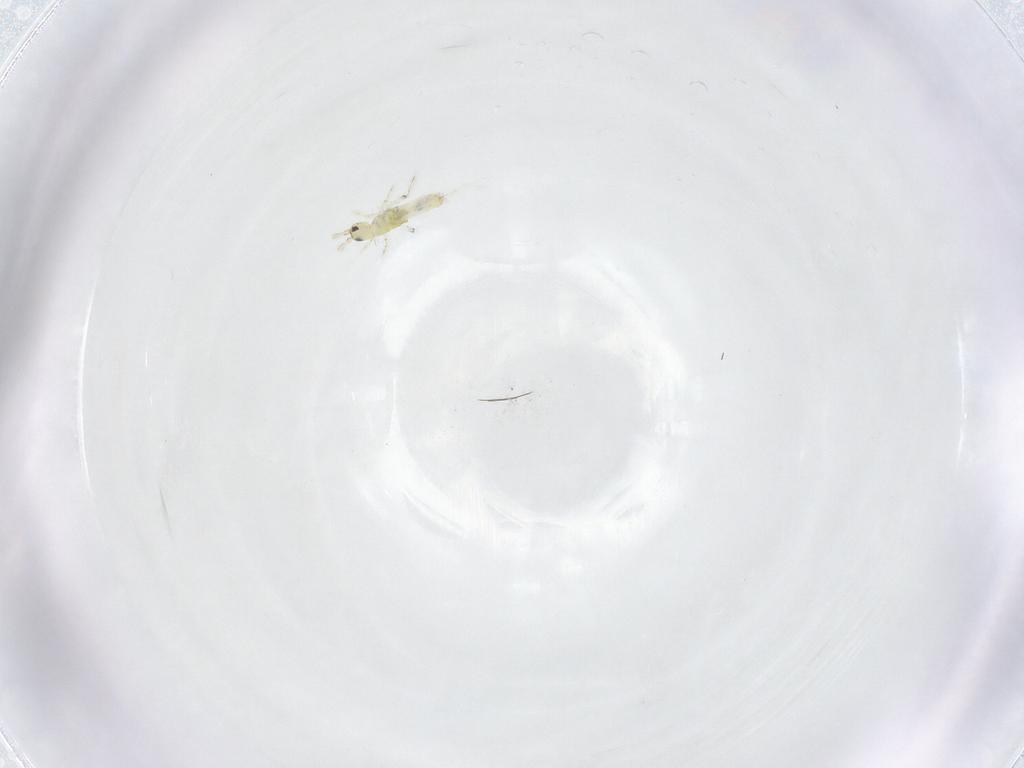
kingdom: Animalia
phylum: Arthropoda
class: Collembola
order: Entomobryomorpha
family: Entomobryidae
